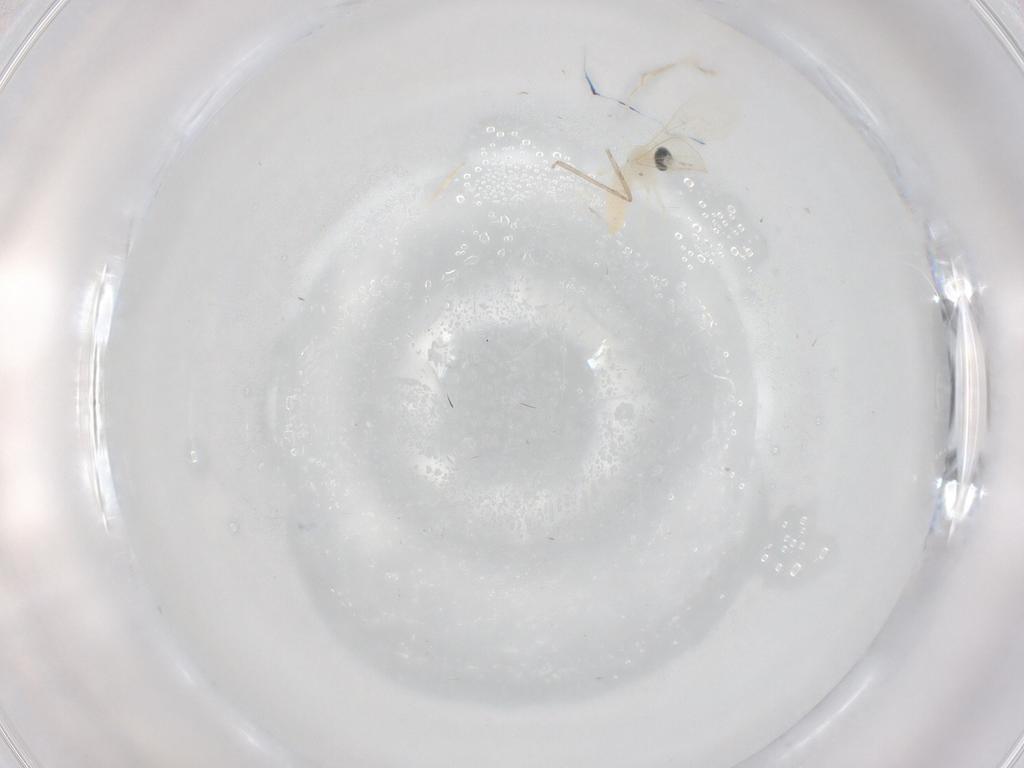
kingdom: Animalia
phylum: Arthropoda
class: Insecta
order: Diptera
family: Cecidomyiidae
